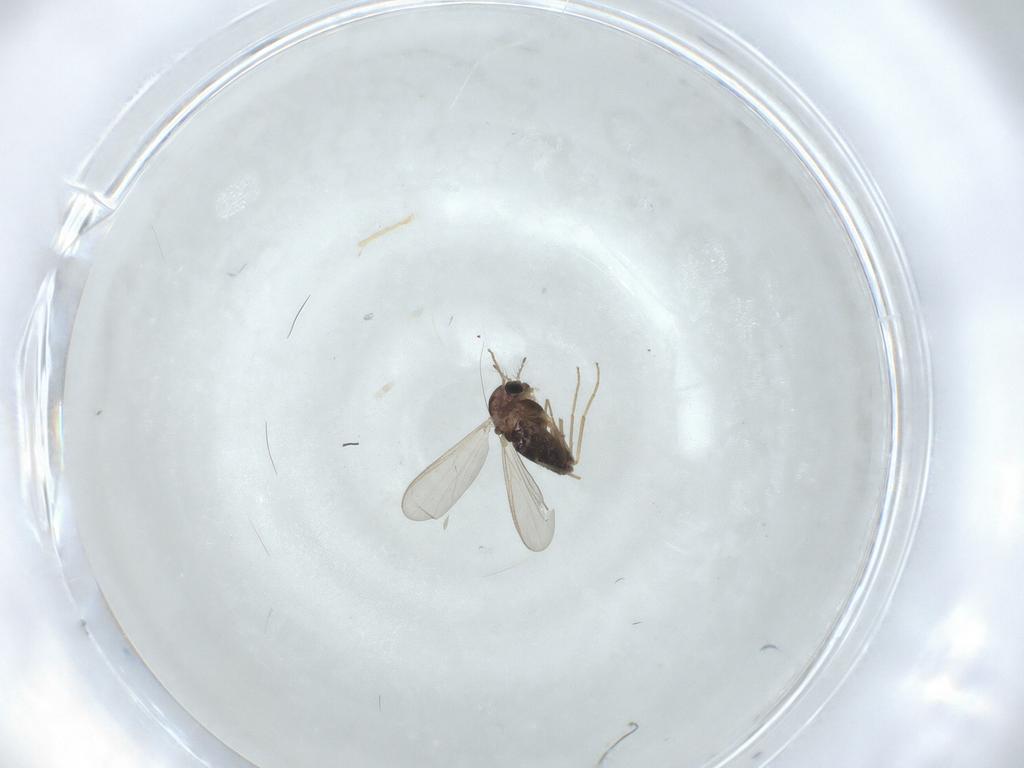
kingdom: Animalia
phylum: Arthropoda
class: Insecta
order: Diptera
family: Chironomidae
